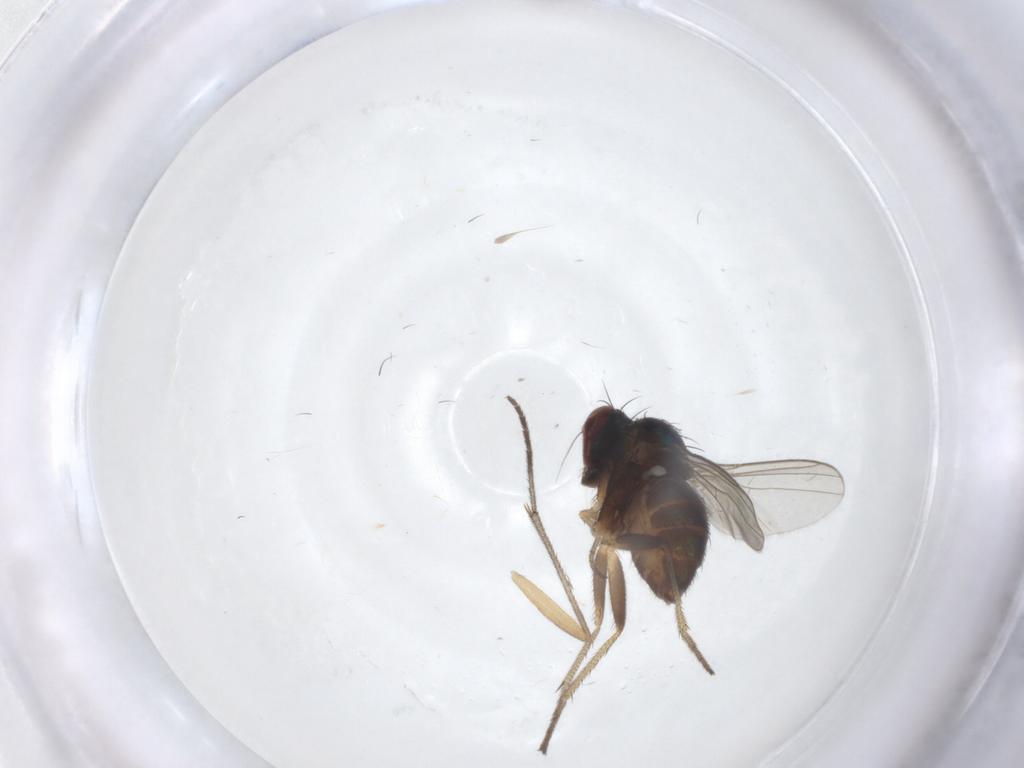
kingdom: Animalia
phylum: Arthropoda
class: Insecta
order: Diptera
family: Sciaridae
